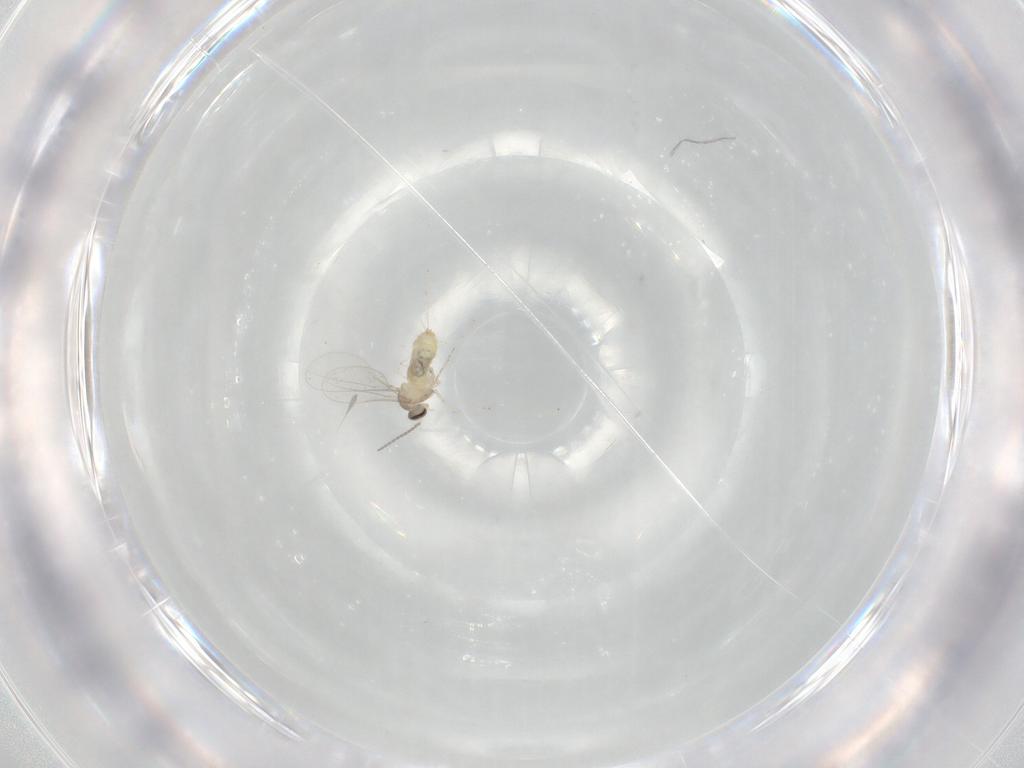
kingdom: Animalia
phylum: Arthropoda
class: Insecta
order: Diptera
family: Cecidomyiidae
